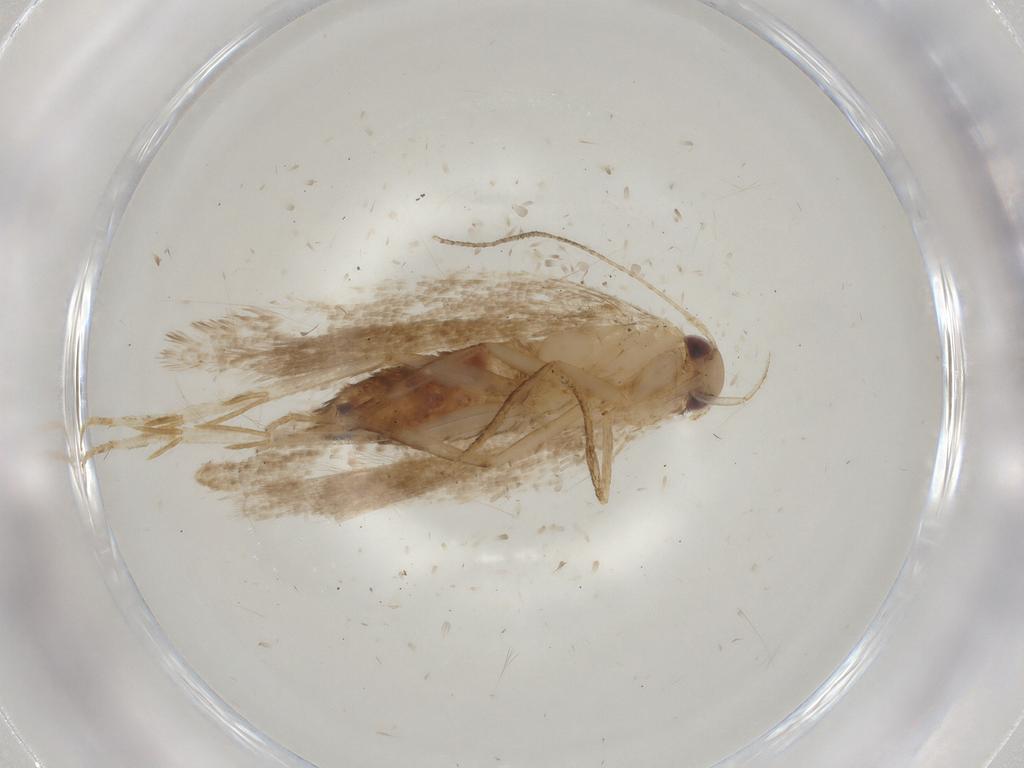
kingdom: Animalia
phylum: Arthropoda
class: Insecta
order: Lepidoptera
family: Gelechiidae
